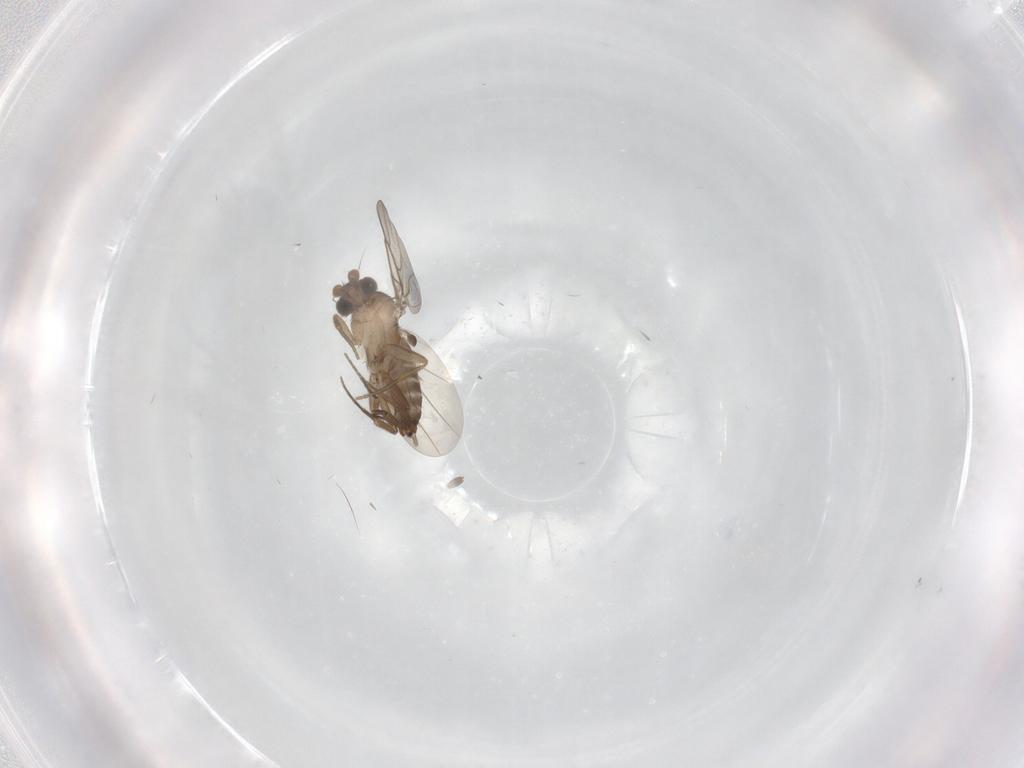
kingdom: Animalia
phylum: Arthropoda
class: Insecta
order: Diptera
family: Phoridae
